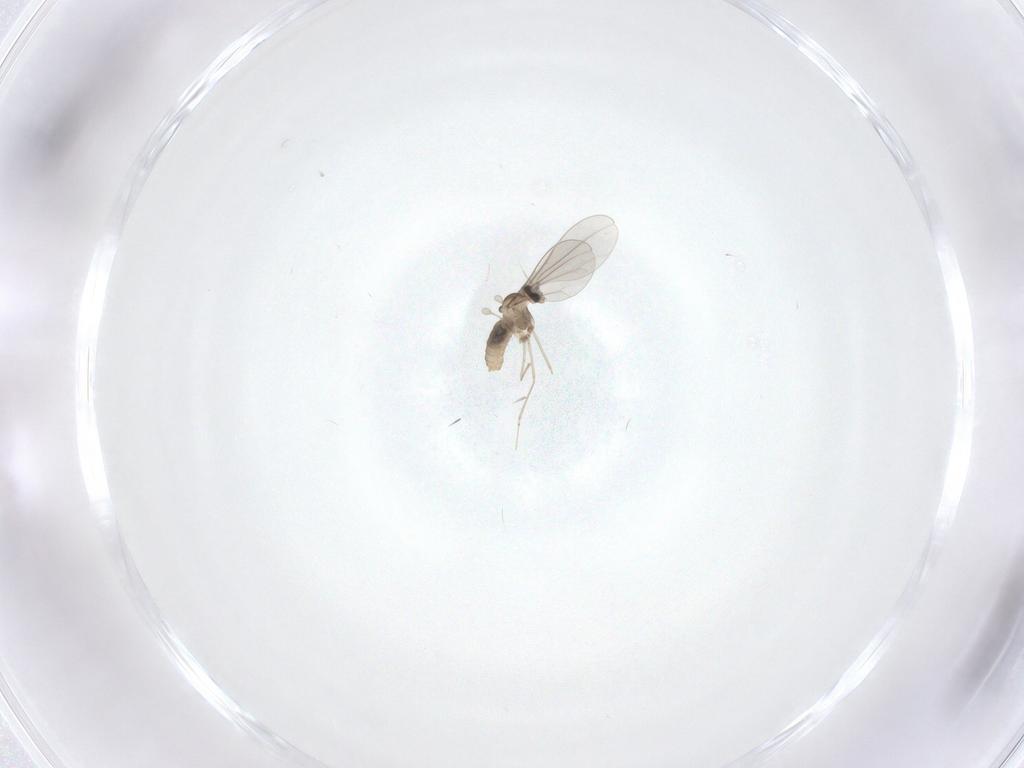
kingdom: Animalia
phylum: Arthropoda
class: Insecta
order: Diptera
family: Cecidomyiidae
